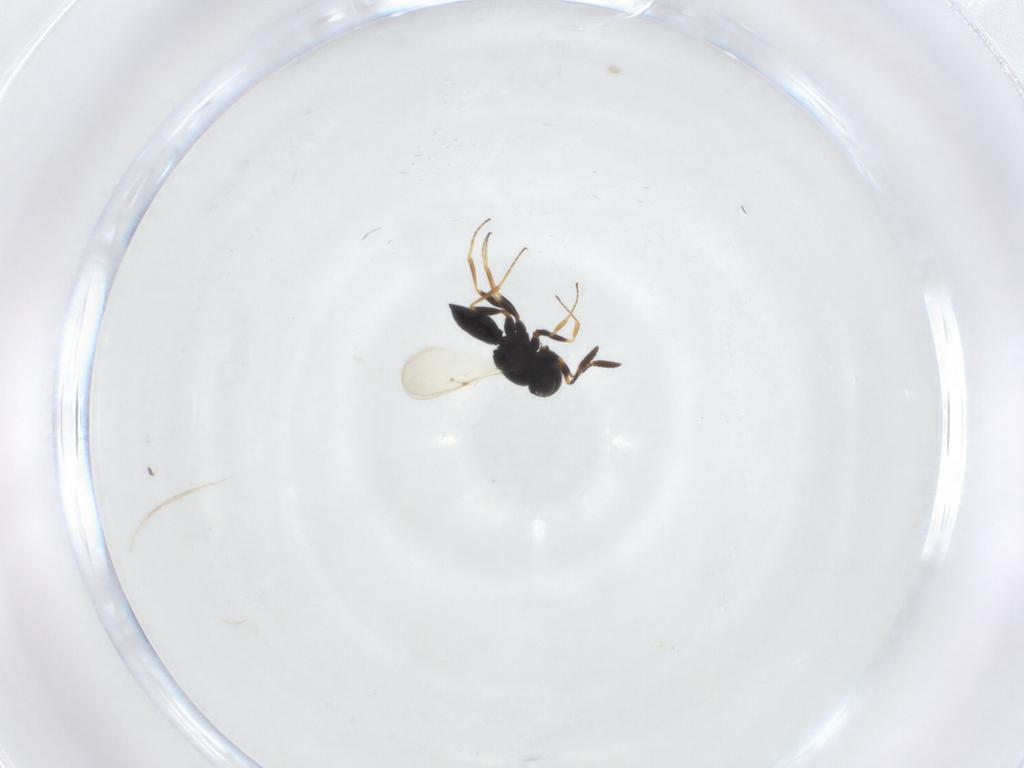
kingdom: Animalia
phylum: Arthropoda
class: Insecta
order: Hymenoptera
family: Scelionidae
